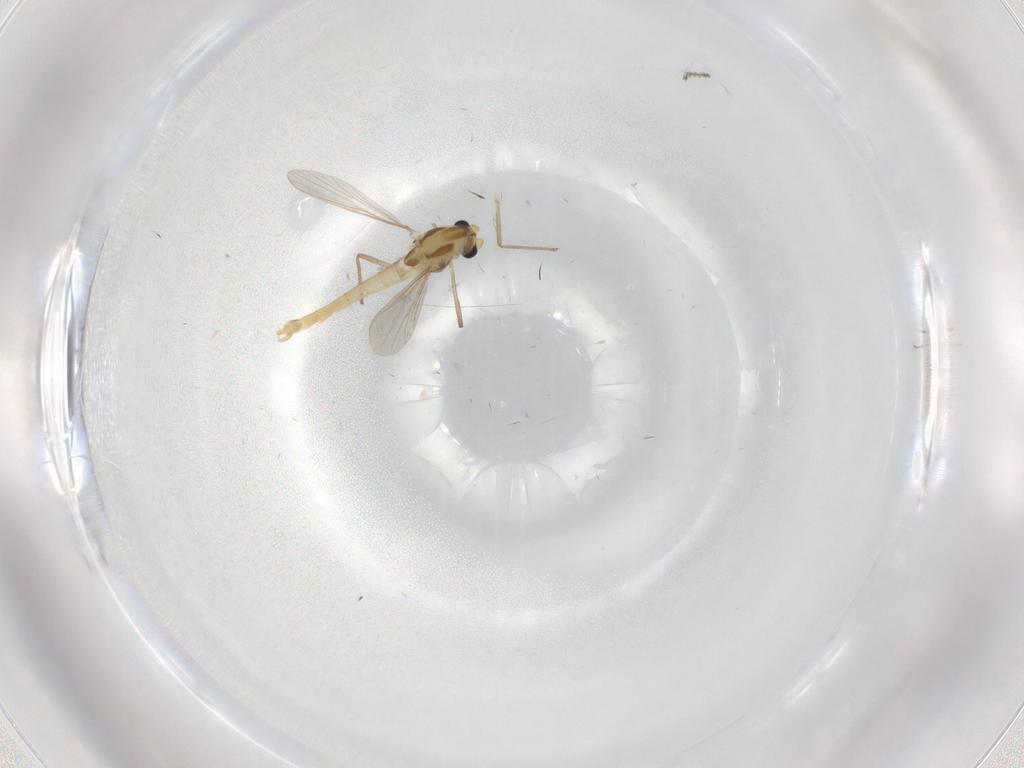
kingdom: Animalia
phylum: Arthropoda
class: Insecta
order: Diptera
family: Chironomidae
